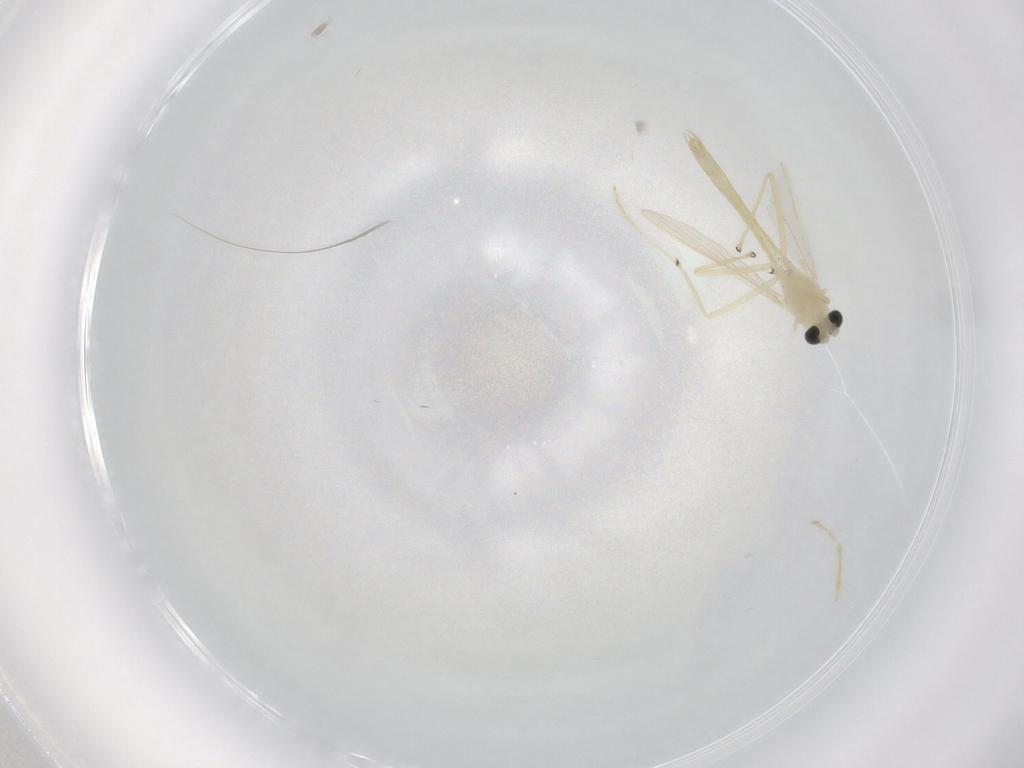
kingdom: Animalia
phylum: Arthropoda
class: Insecta
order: Diptera
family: Chironomidae
